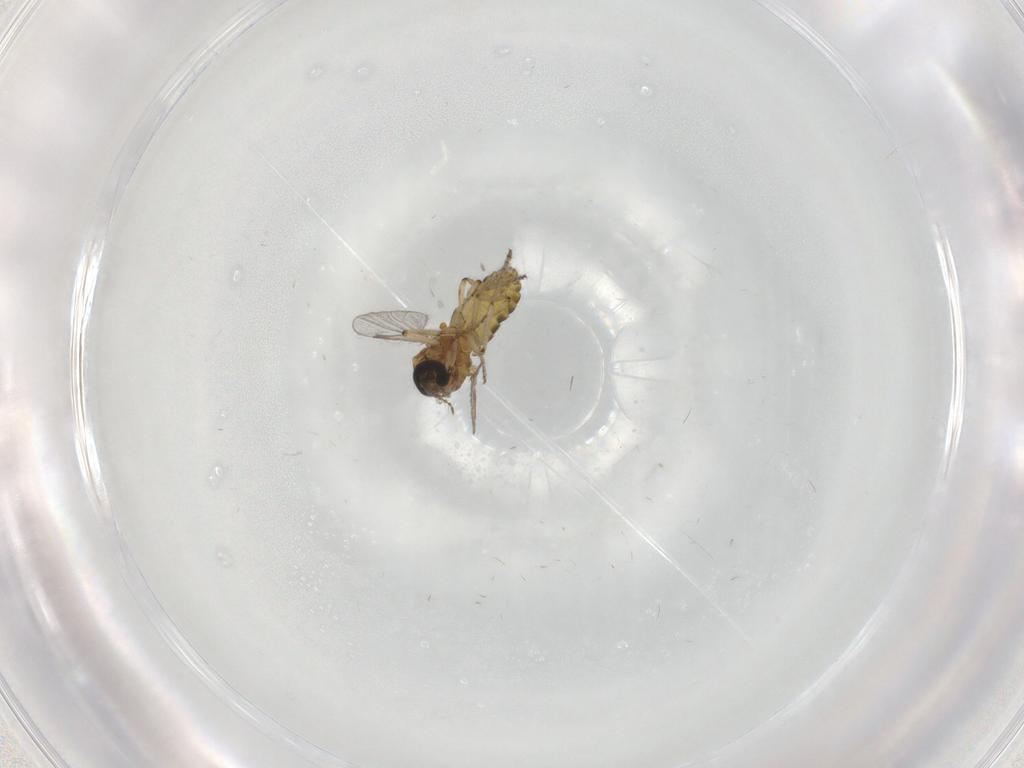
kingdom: Animalia
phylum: Arthropoda
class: Insecta
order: Diptera
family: Ceratopogonidae
